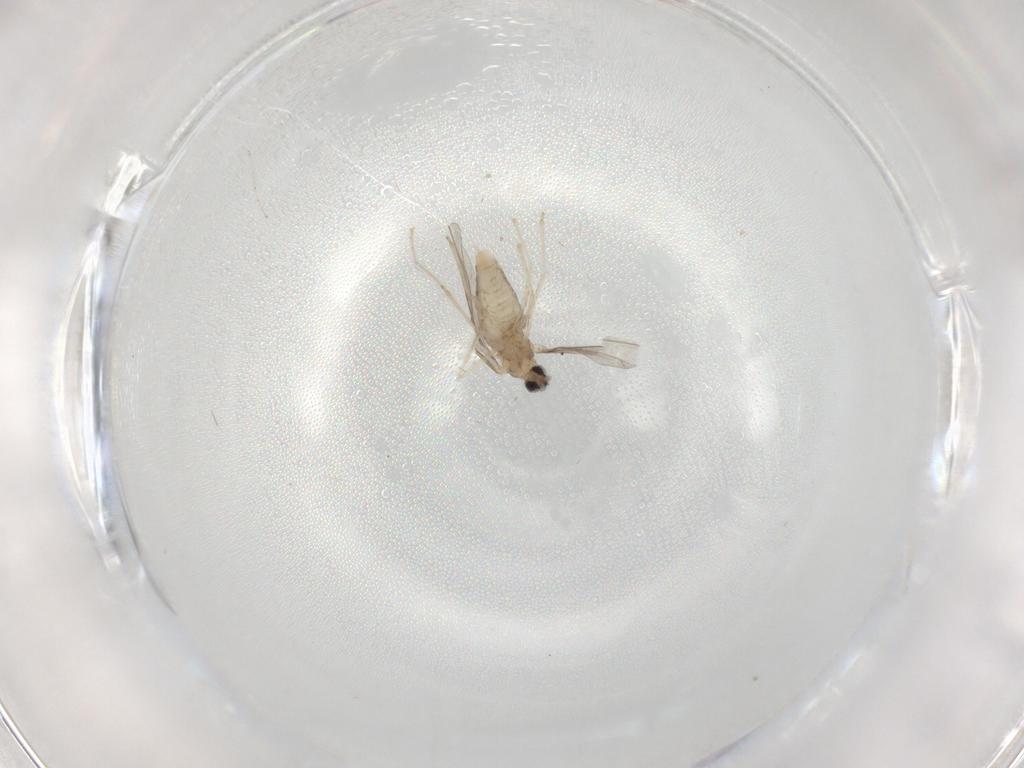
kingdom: Animalia
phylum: Arthropoda
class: Insecta
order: Diptera
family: Cecidomyiidae
